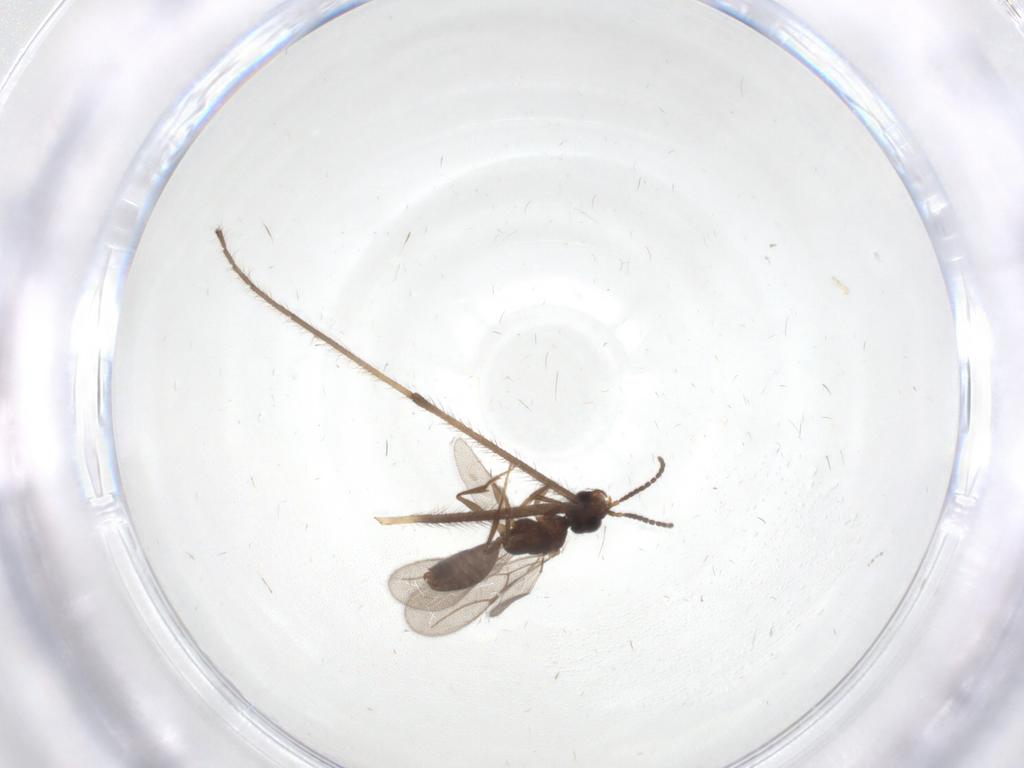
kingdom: Animalia
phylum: Arthropoda
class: Insecta
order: Hymenoptera
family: Bethylidae
